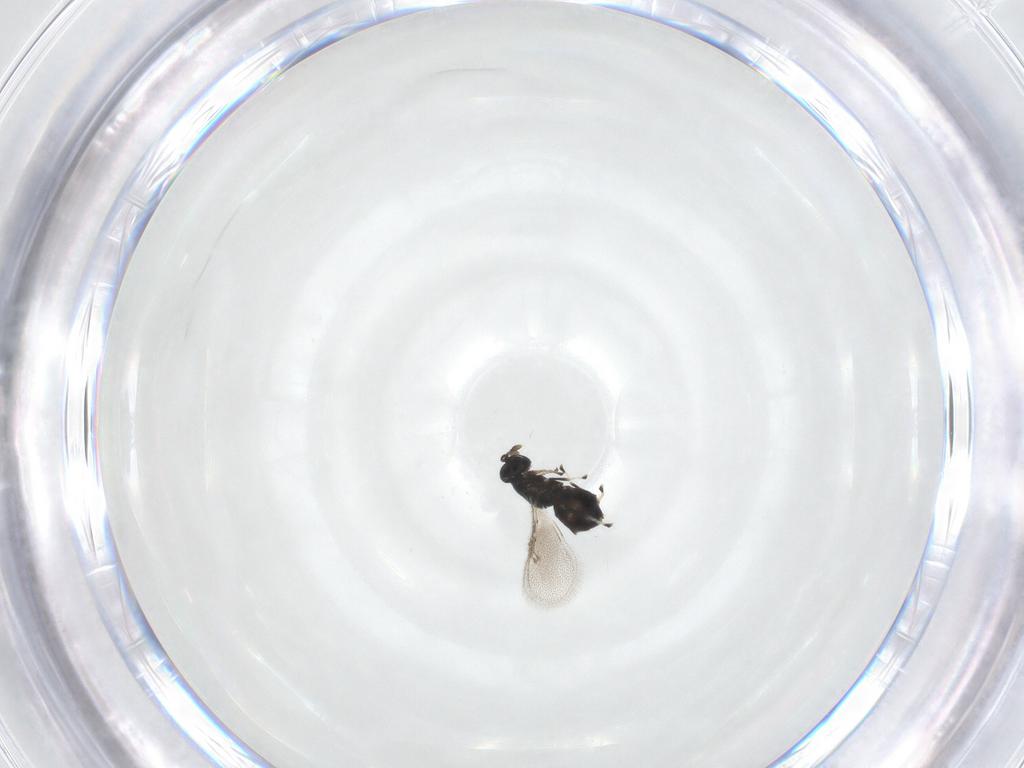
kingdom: Animalia
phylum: Arthropoda
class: Insecta
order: Hymenoptera
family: Eulophidae
